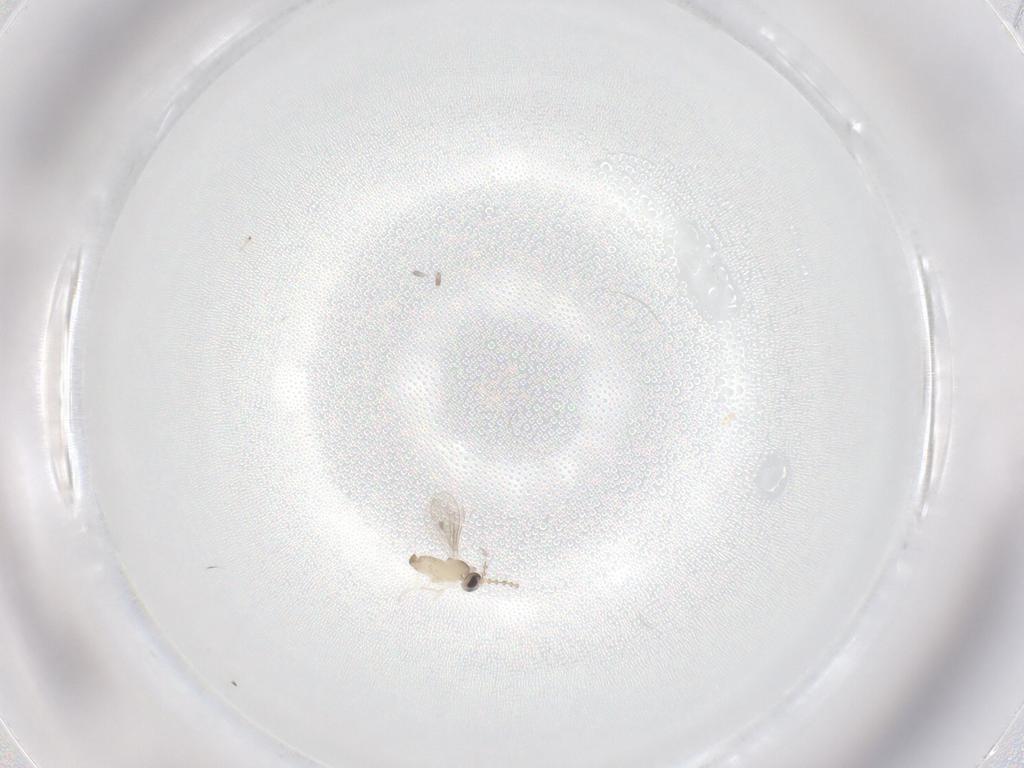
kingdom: Animalia
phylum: Arthropoda
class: Insecta
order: Diptera
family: Cecidomyiidae
